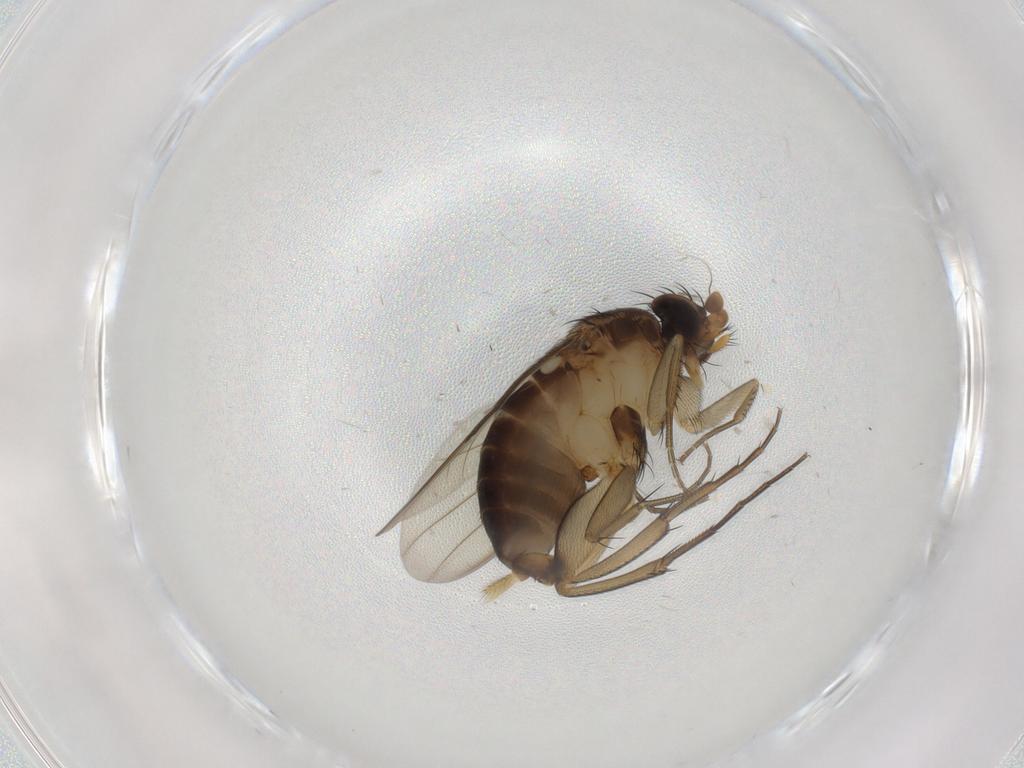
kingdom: Animalia
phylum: Arthropoda
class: Insecta
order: Diptera
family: Phoridae
